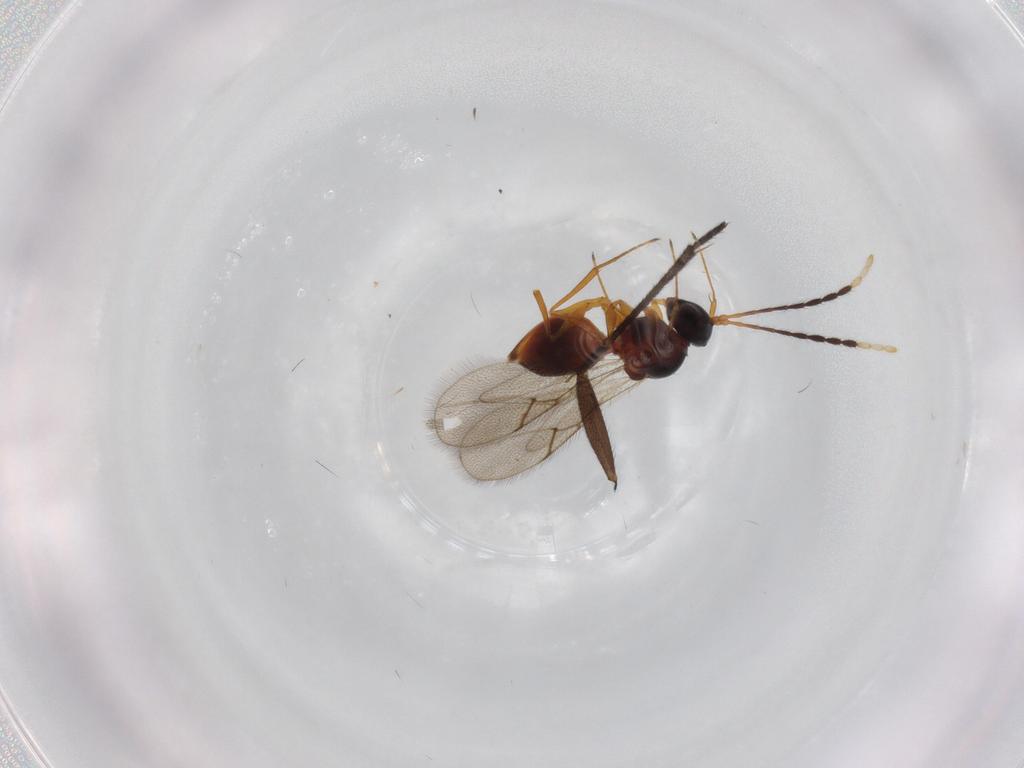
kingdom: Animalia
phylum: Arthropoda
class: Insecta
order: Hymenoptera
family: Figitidae
